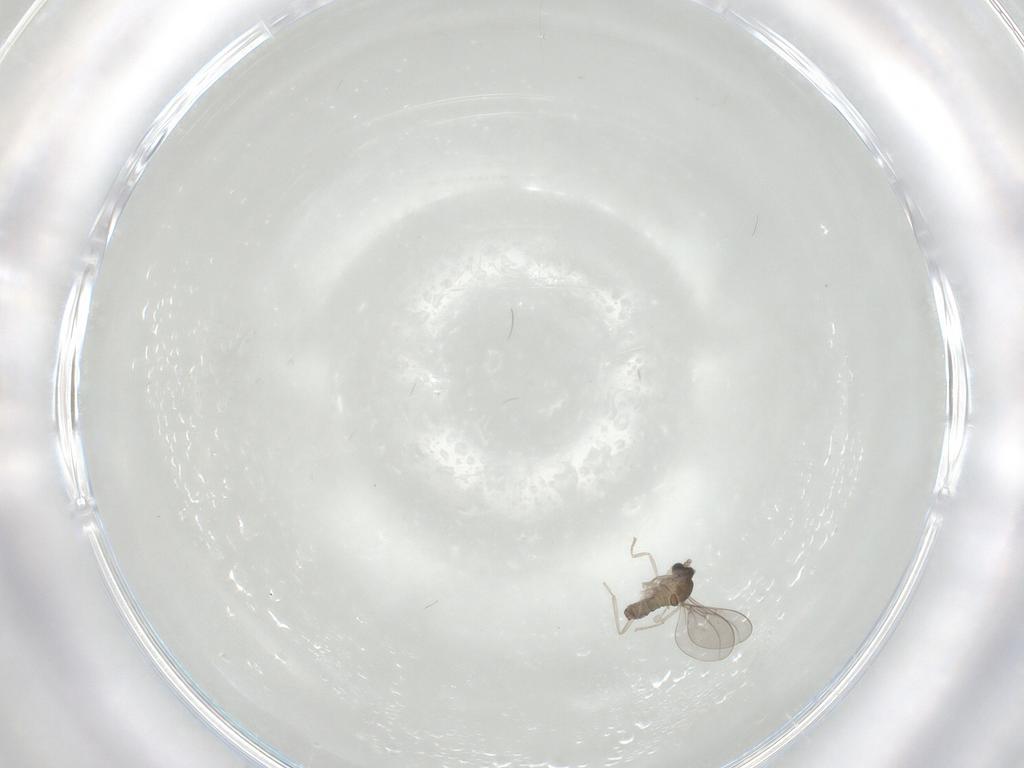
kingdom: Animalia
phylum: Arthropoda
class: Insecta
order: Diptera
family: Cecidomyiidae
